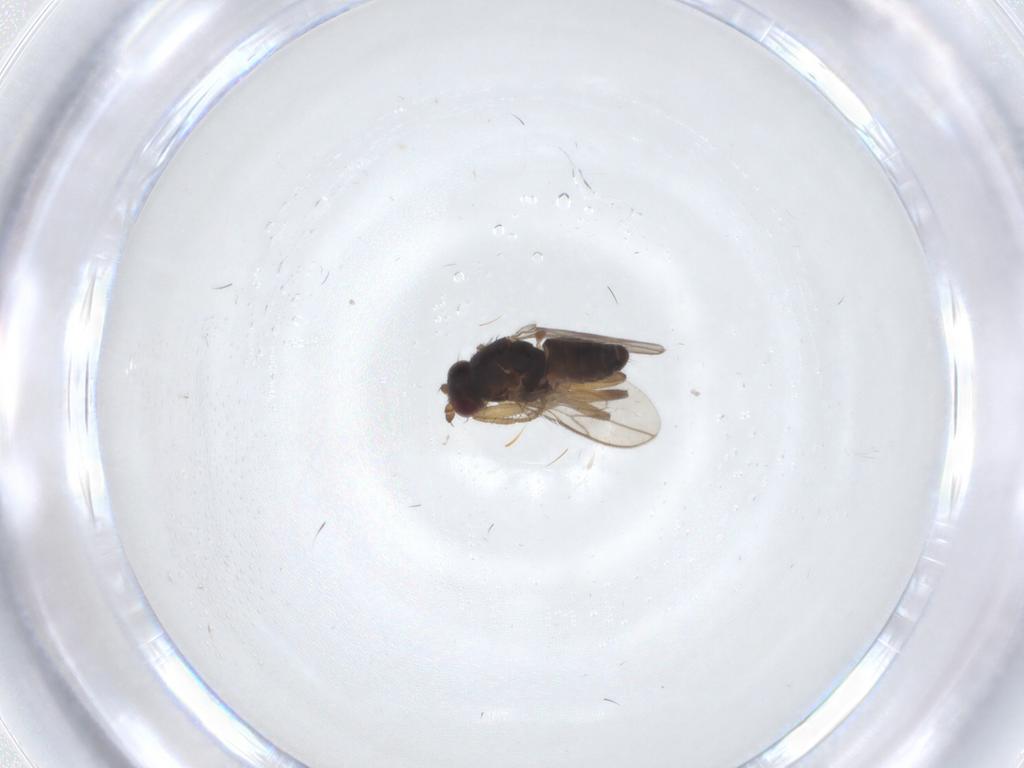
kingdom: Animalia
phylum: Arthropoda
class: Insecta
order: Diptera
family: Sphaeroceridae
